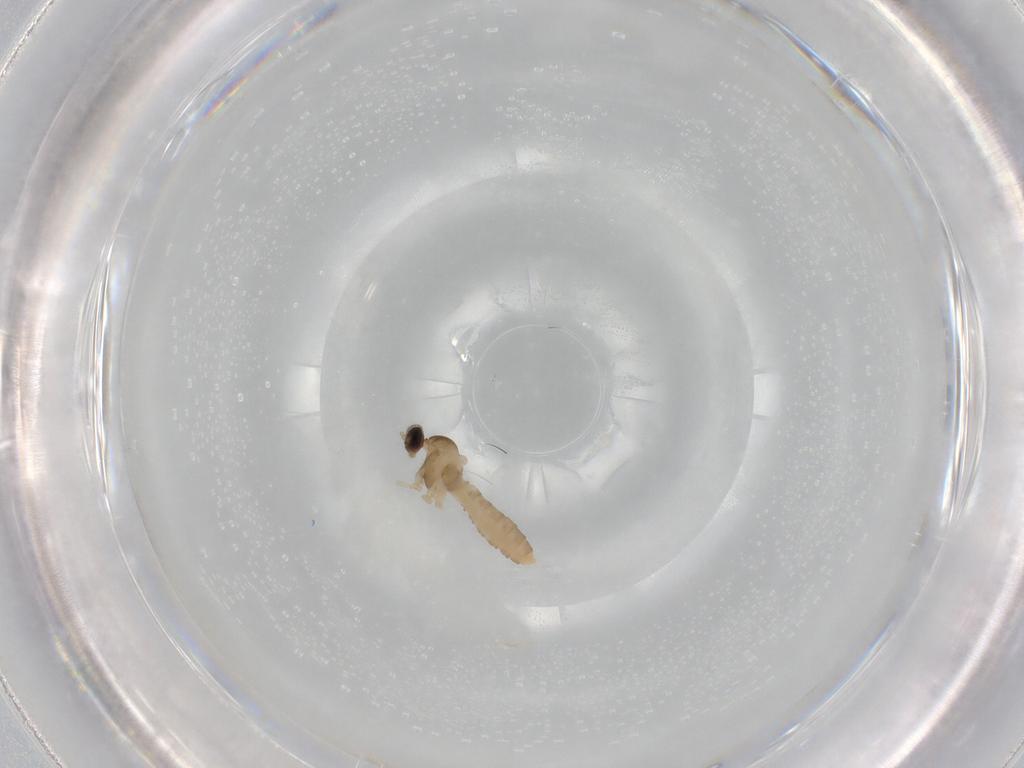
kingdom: Animalia
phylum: Arthropoda
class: Insecta
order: Diptera
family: Cecidomyiidae
